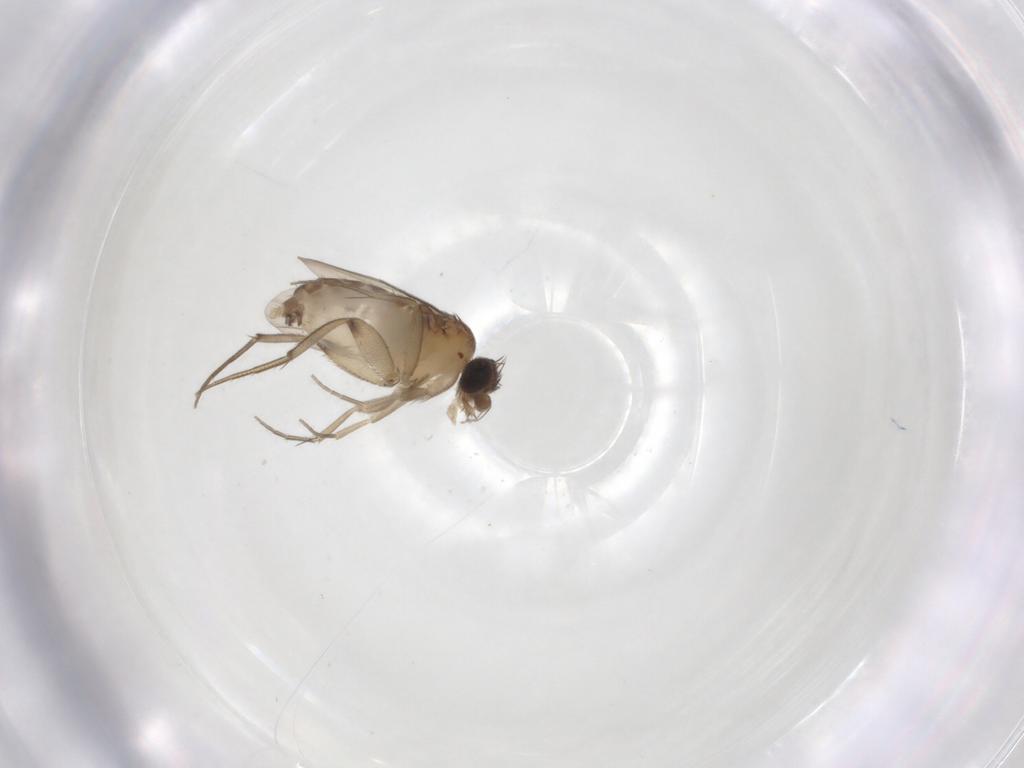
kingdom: Animalia
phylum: Arthropoda
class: Insecta
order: Diptera
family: Phoridae
